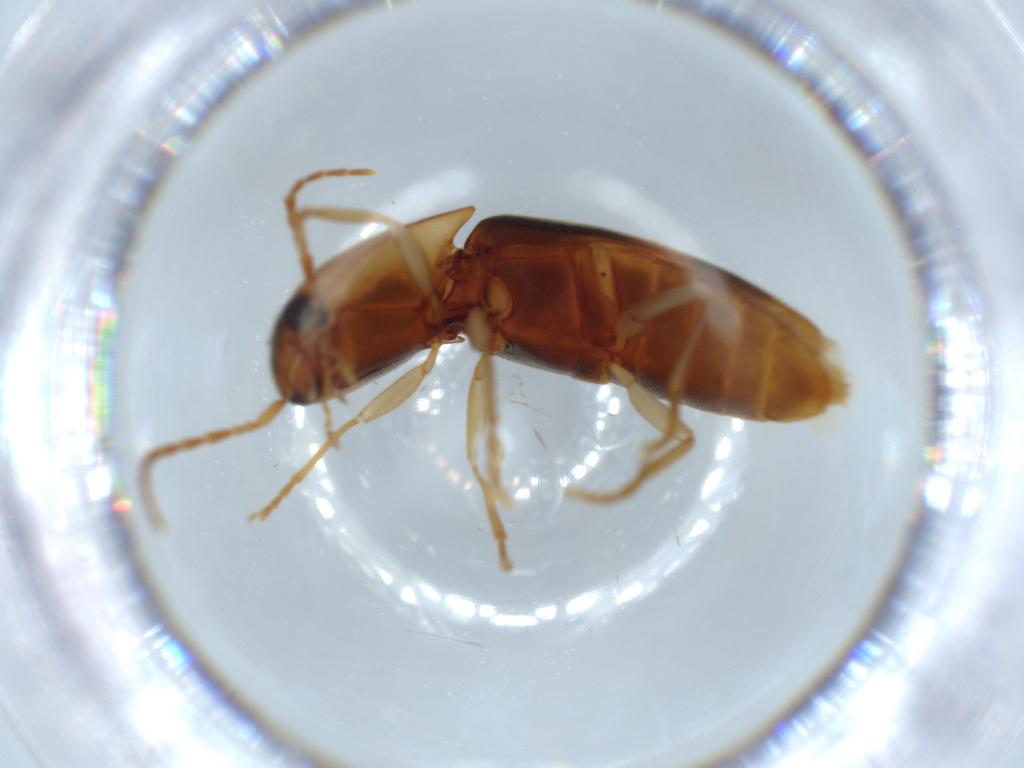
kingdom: Animalia
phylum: Arthropoda
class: Insecta
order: Coleoptera
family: Elateridae
